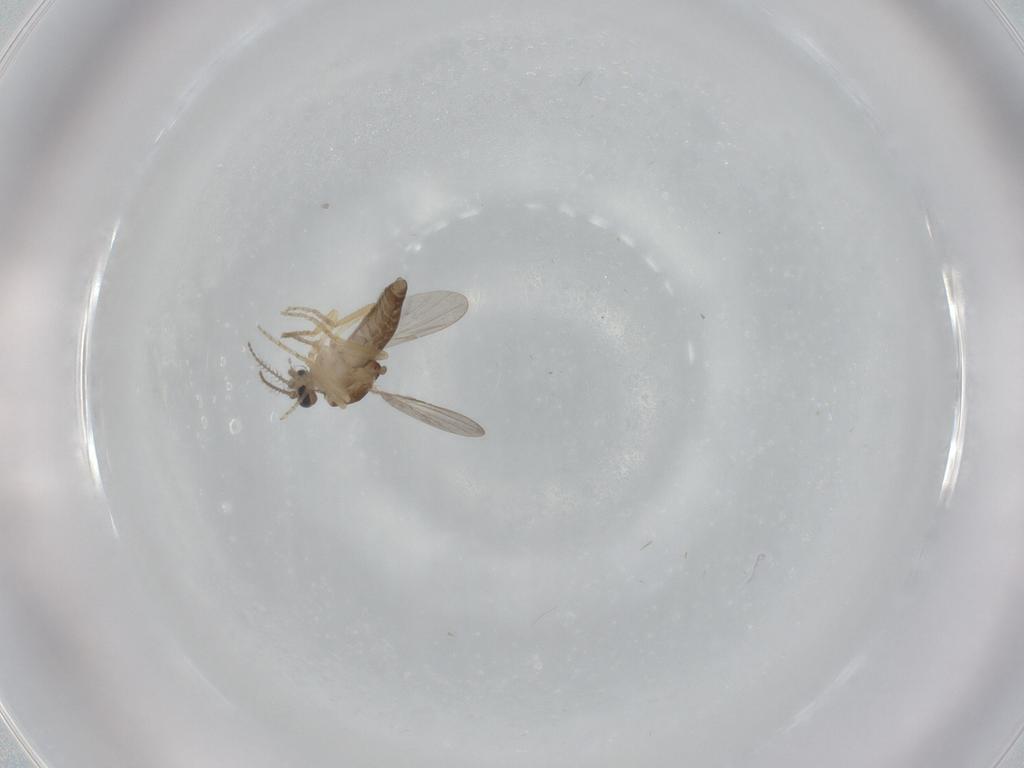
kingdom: Animalia
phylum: Arthropoda
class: Insecta
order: Diptera
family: Ceratopogonidae
